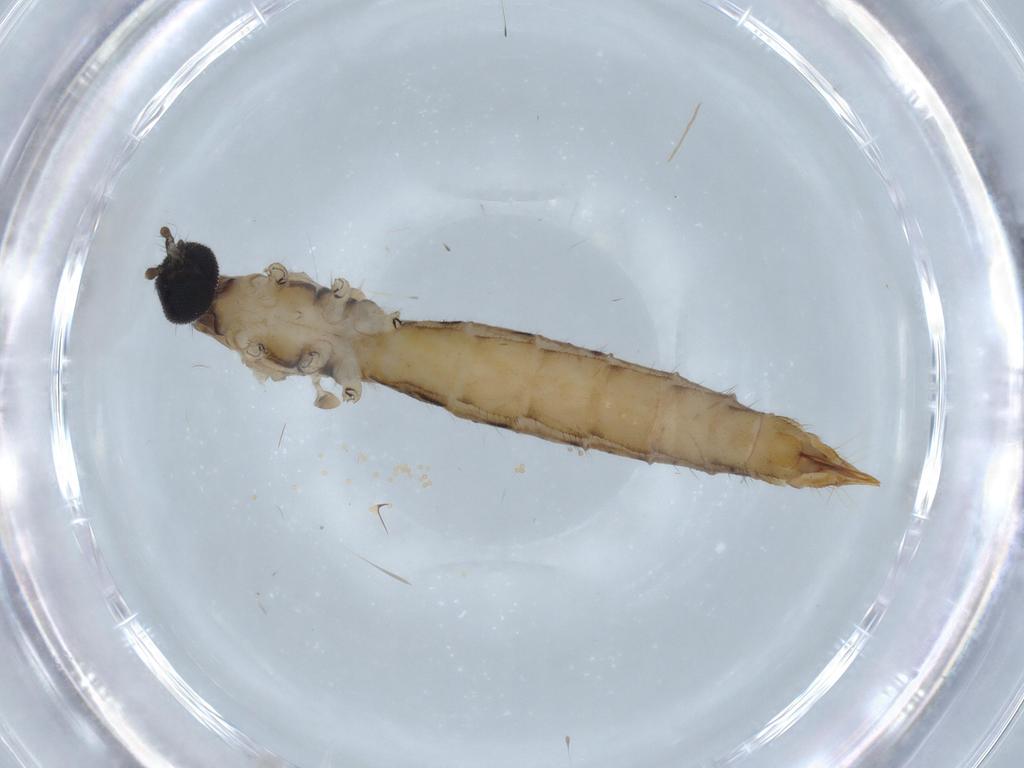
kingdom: Animalia
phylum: Arthropoda
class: Insecta
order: Diptera
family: Limoniidae
